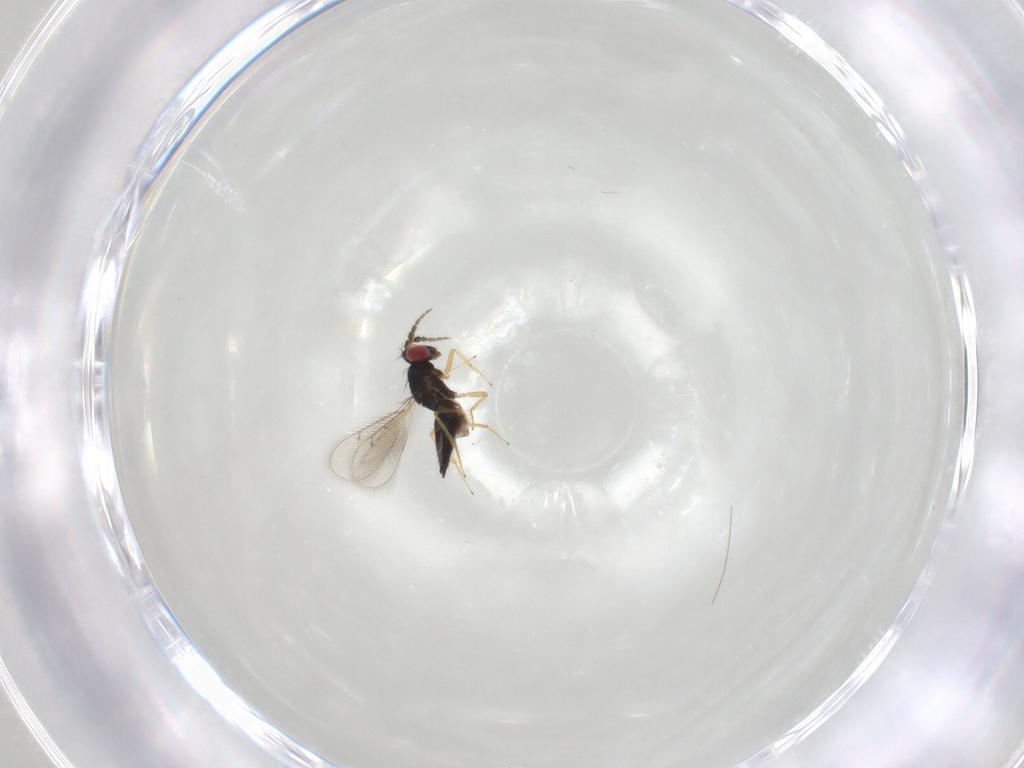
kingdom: Animalia
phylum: Arthropoda
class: Insecta
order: Hymenoptera
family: Eulophidae
